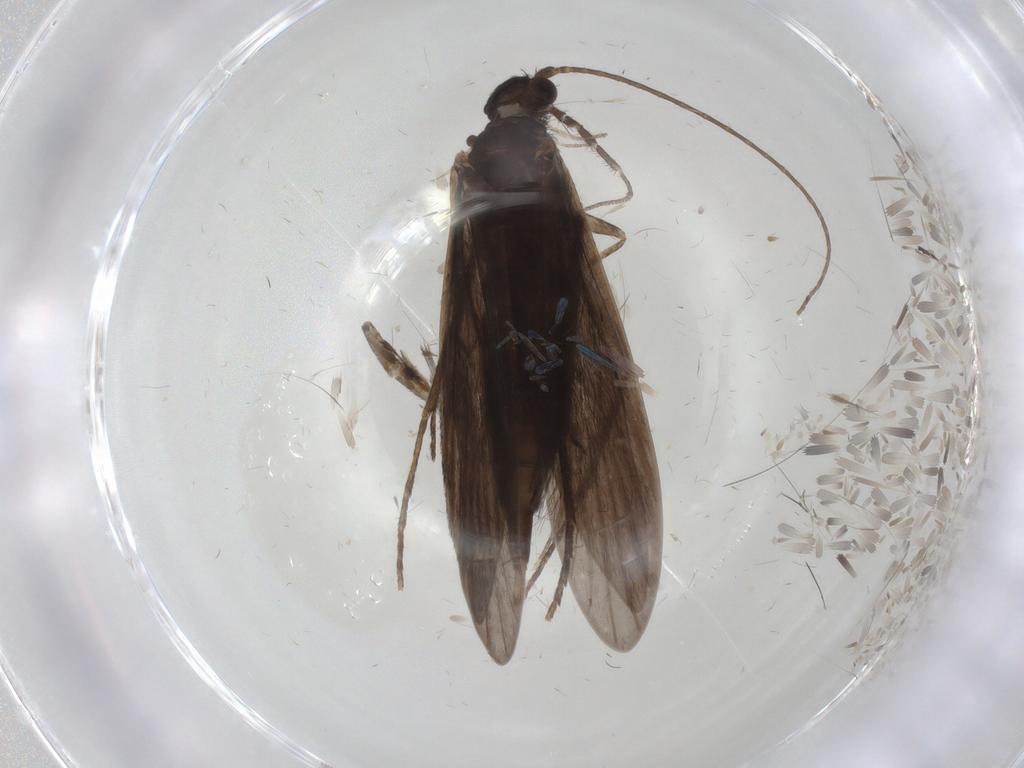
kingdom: Animalia
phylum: Arthropoda
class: Insecta
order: Trichoptera
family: Xiphocentronidae
